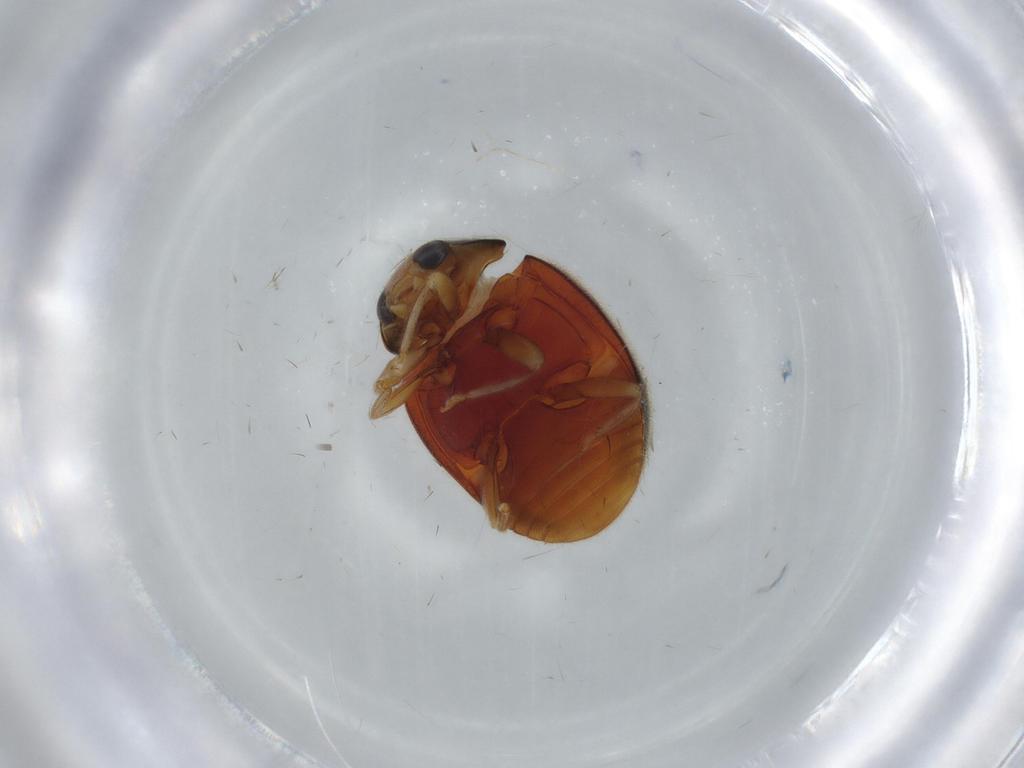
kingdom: Animalia
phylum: Arthropoda
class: Insecta
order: Coleoptera
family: Coccinellidae
